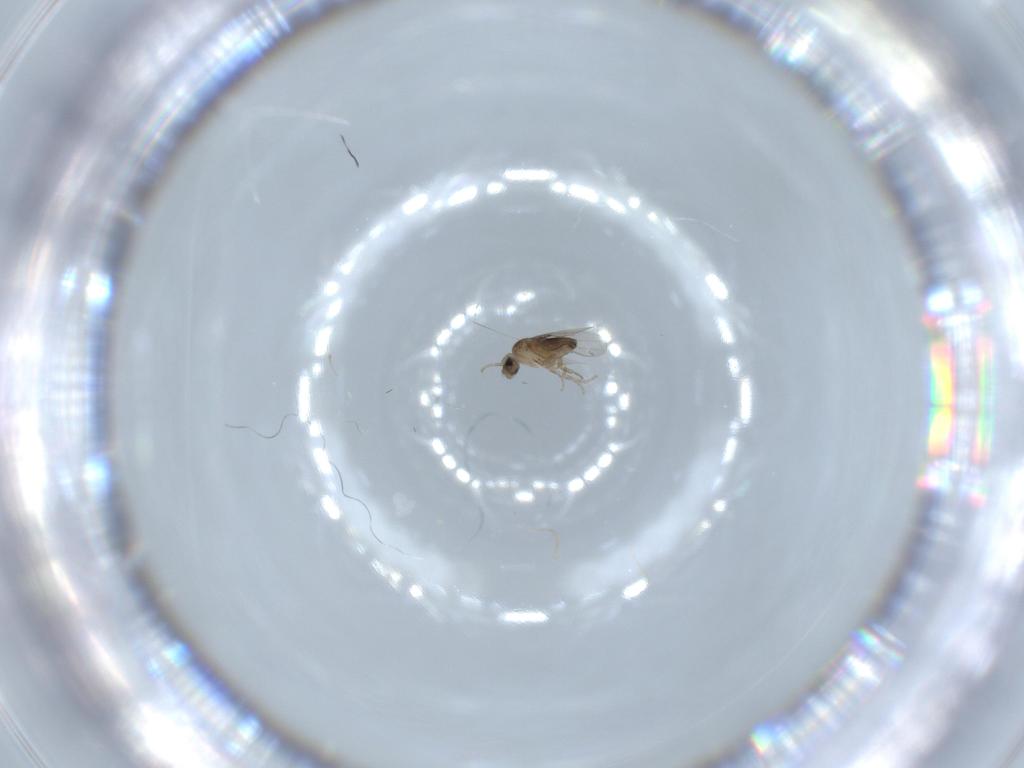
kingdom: Animalia
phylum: Arthropoda
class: Insecta
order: Diptera
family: Phoridae
